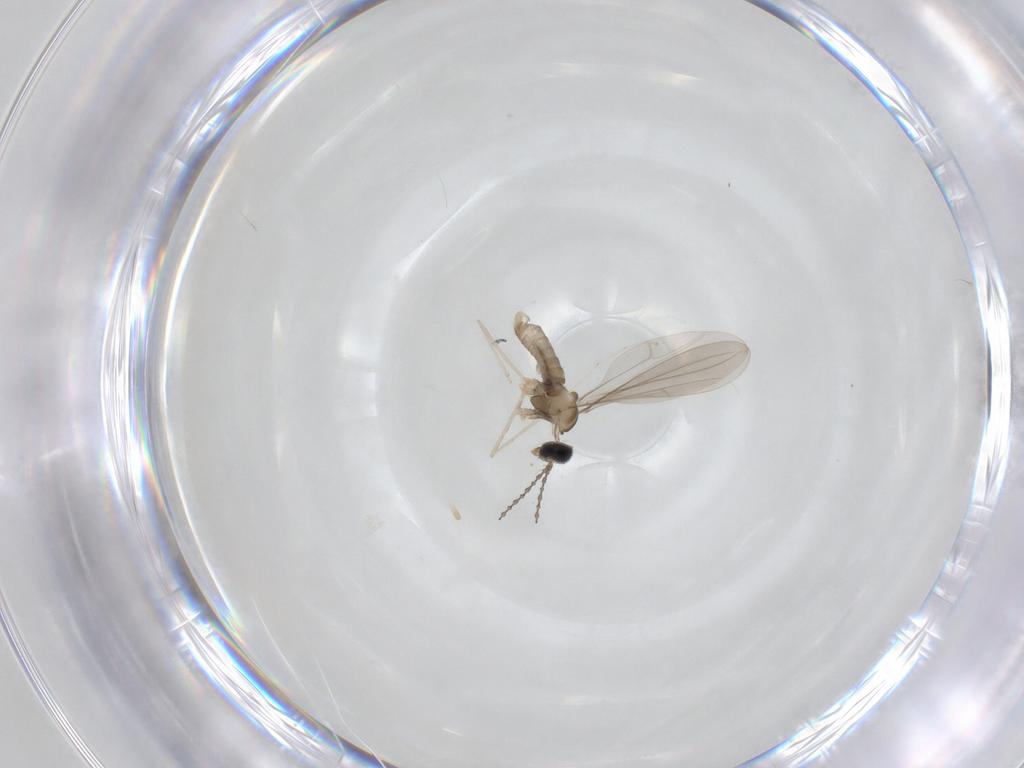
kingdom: Animalia
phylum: Arthropoda
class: Insecta
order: Diptera
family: Cecidomyiidae
